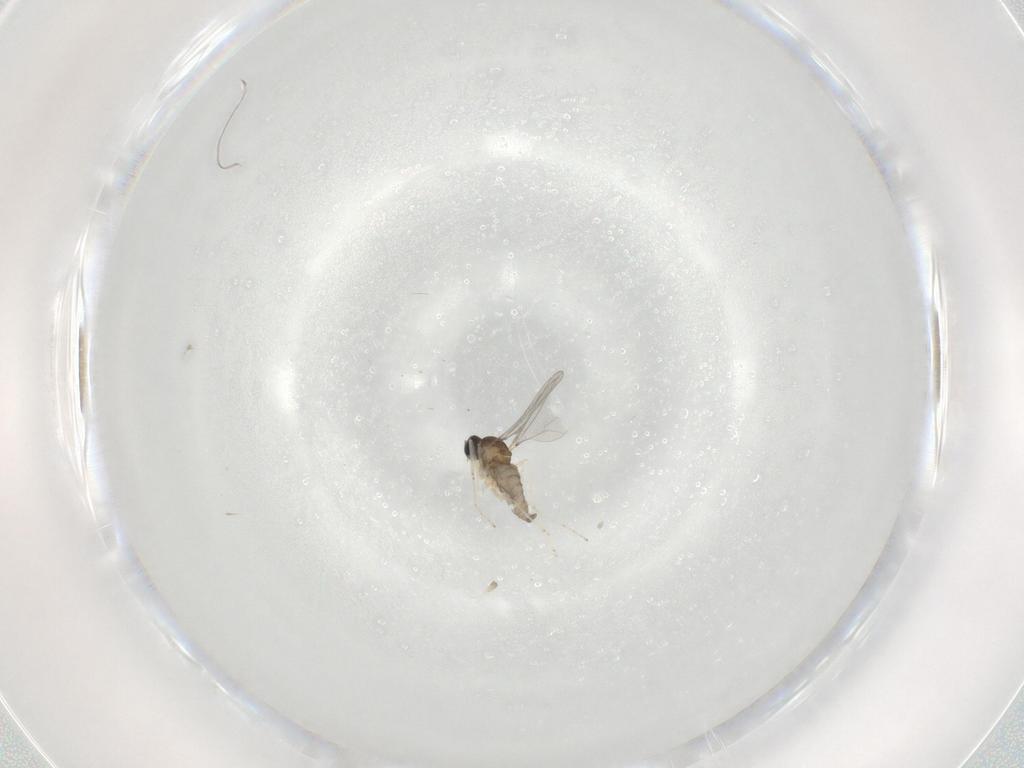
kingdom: Animalia
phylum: Arthropoda
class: Insecta
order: Diptera
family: Cecidomyiidae
